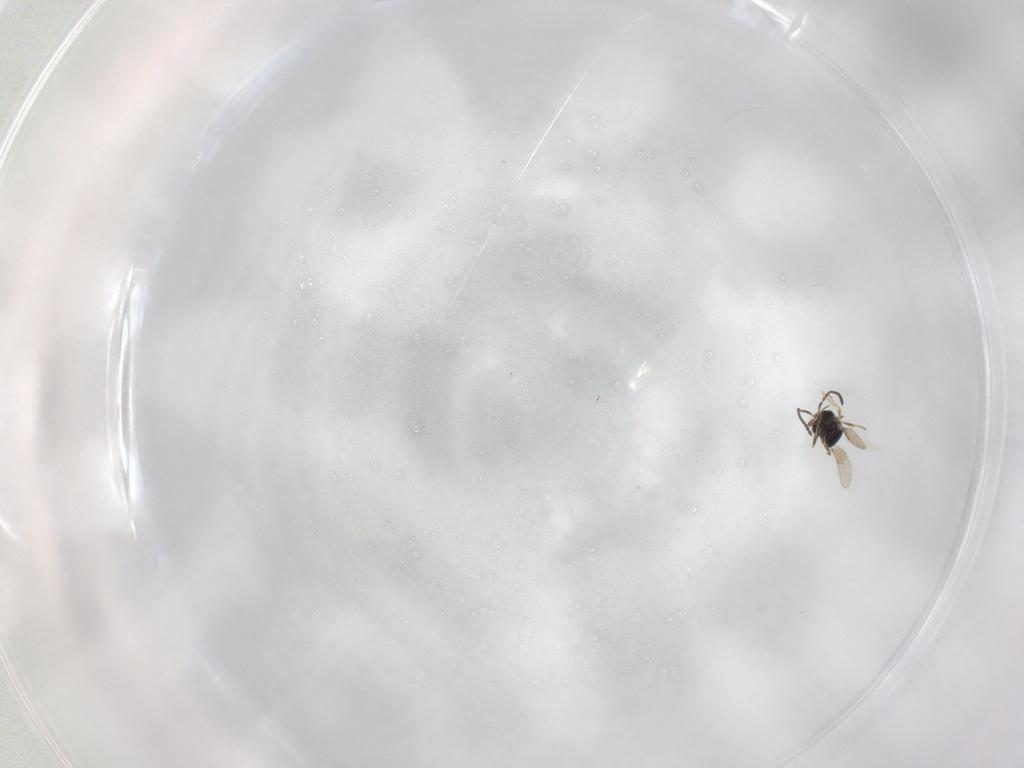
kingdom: Animalia
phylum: Arthropoda
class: Insecta
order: Hymenoptera
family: Scelionidae
